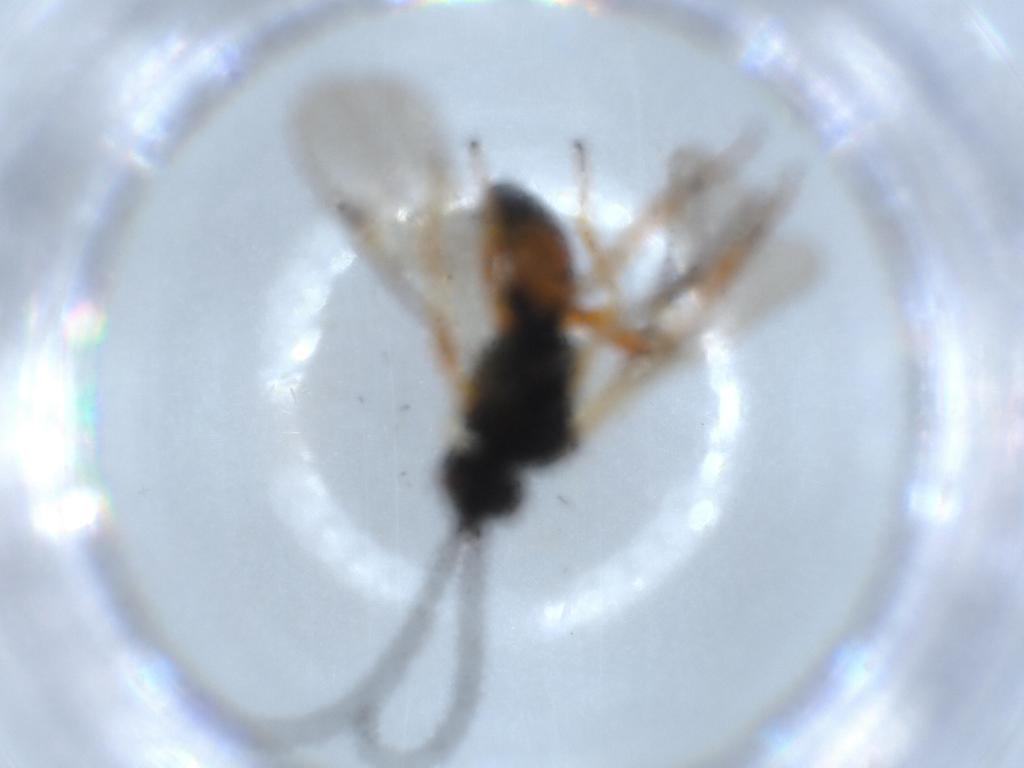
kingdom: Animalia
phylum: Arthropoda
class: Insecta
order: Hymenoptera
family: Braconidae
